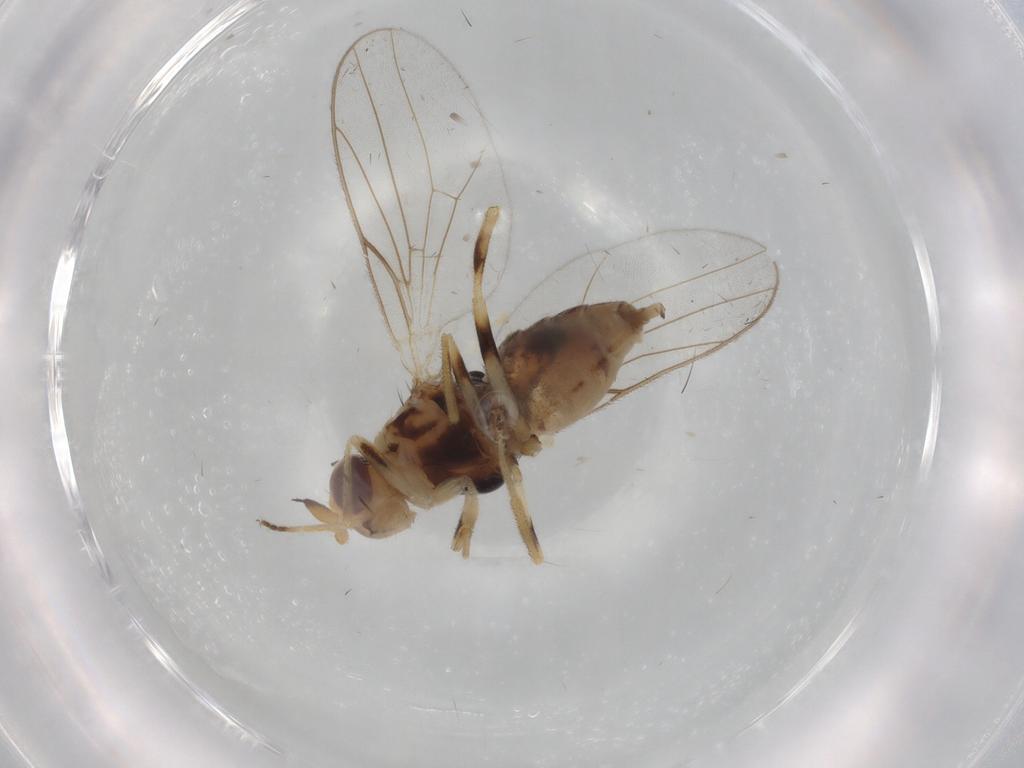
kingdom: Animalia
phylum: Arthropoda
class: Insecta
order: Diptera
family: Chloropidae
